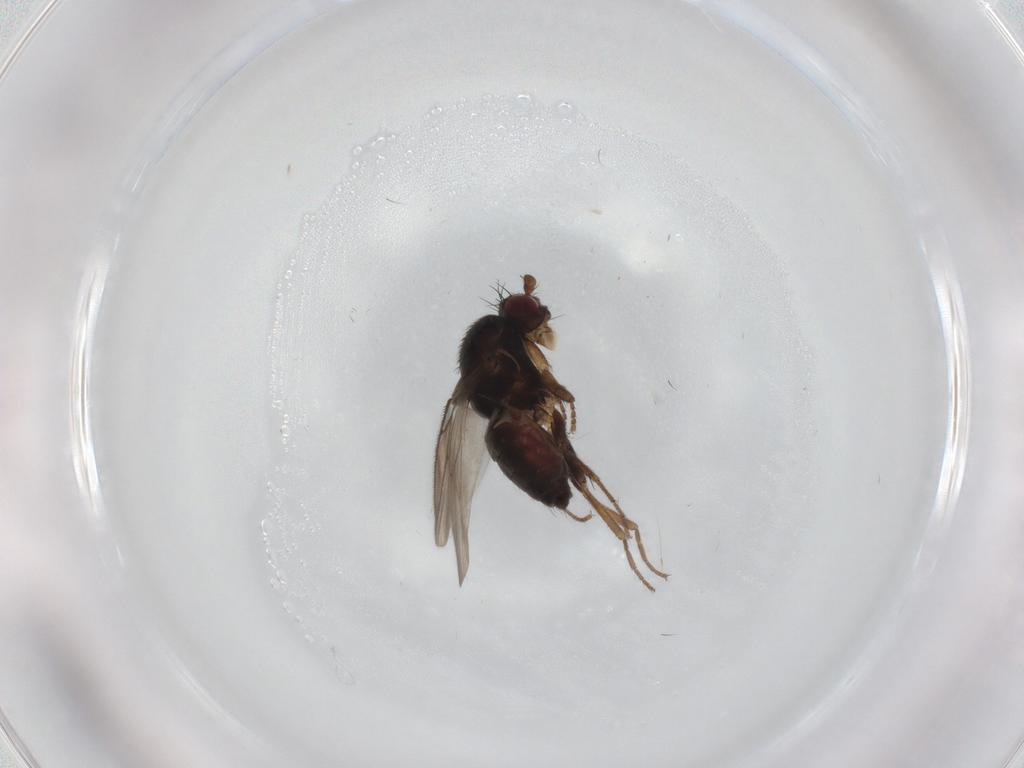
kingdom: Animalia
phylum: Arthropoda
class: Insecta
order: Diptera
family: Sphaeroceridae
